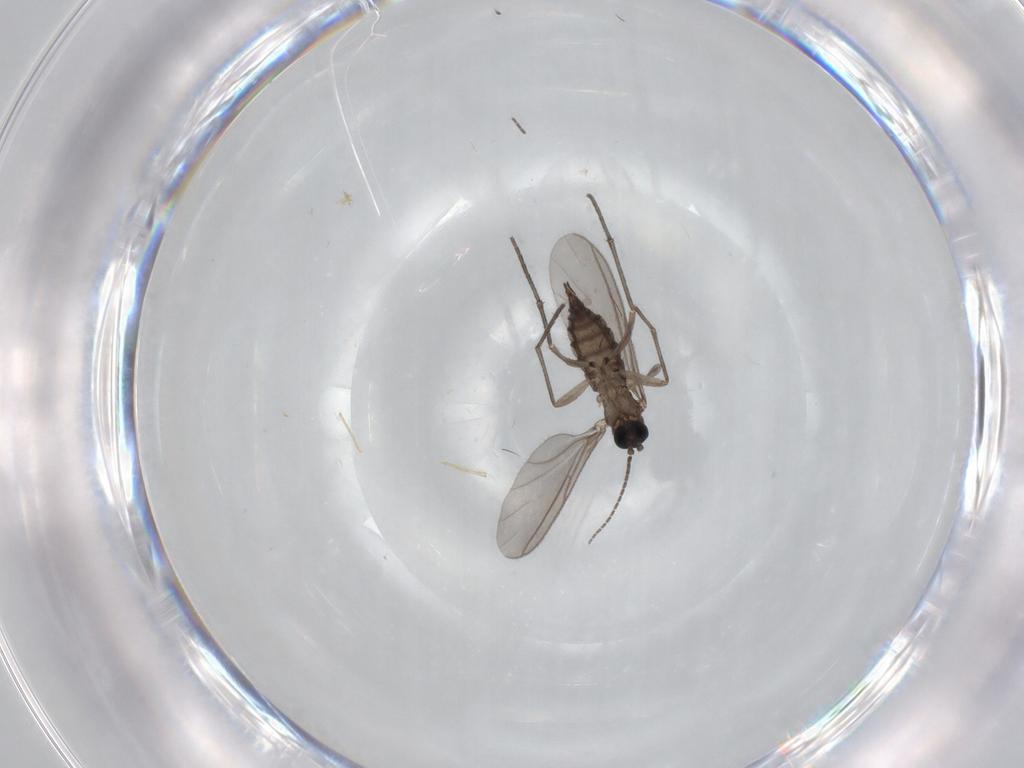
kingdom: Animalia
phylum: Arthropoda
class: Insecta
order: Diptera
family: Sciaridae
